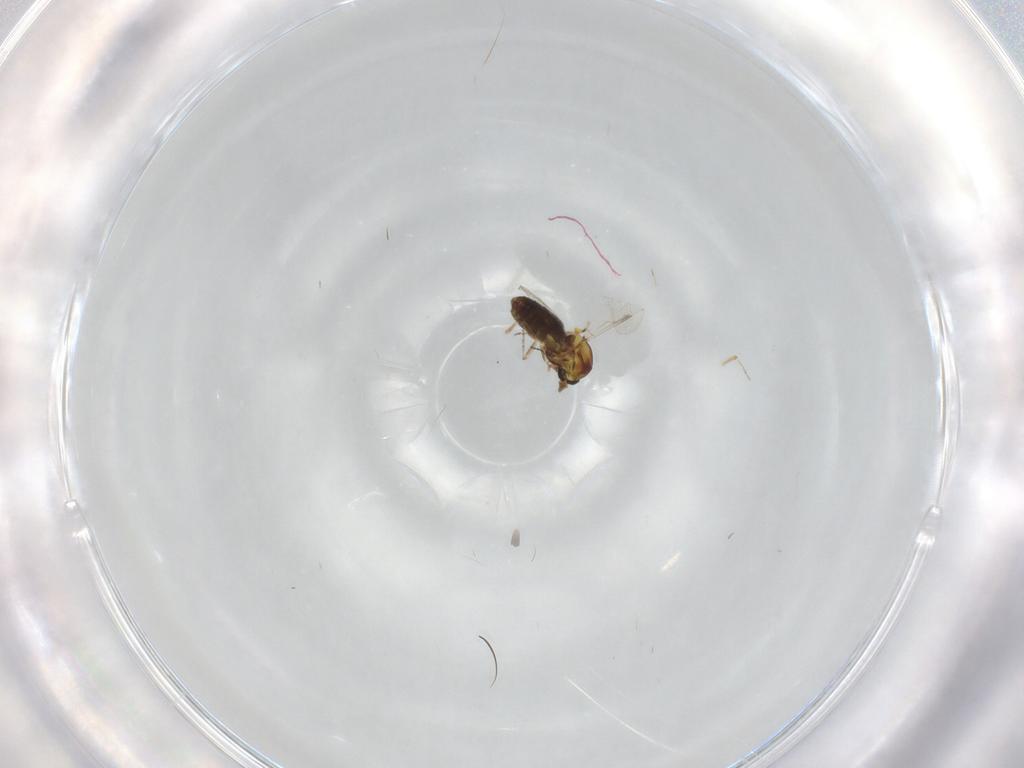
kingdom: Animalia
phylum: Arthropoda
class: Insecta
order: Diptera
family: Ceratopogonidae
